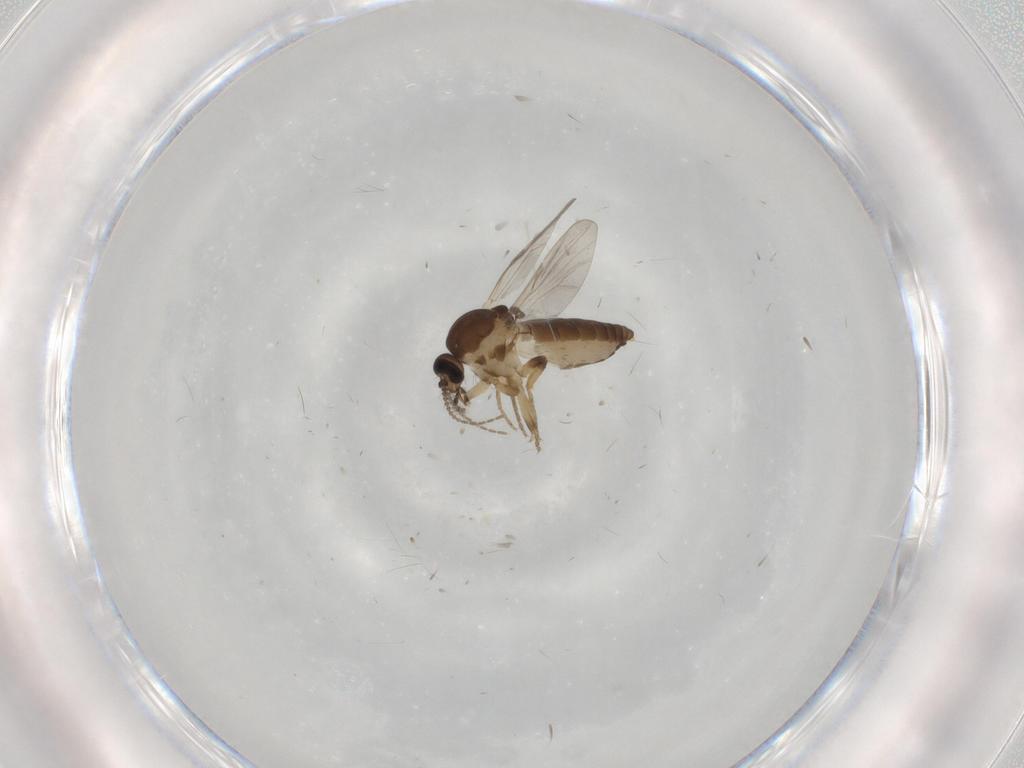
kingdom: Animalia
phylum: Arthropoda
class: Insecta
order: Diptera
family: Ceratopogonidae
